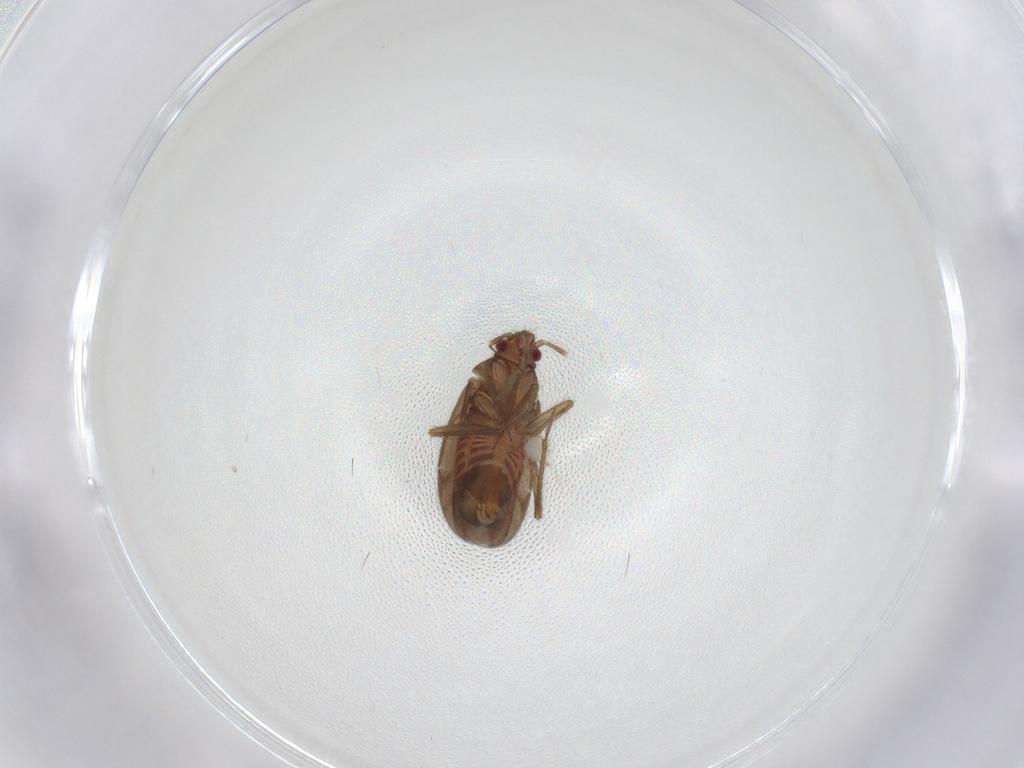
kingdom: Animalia
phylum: Arthropoda
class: Insecta
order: Hemiptera
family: Ceratocombidae
